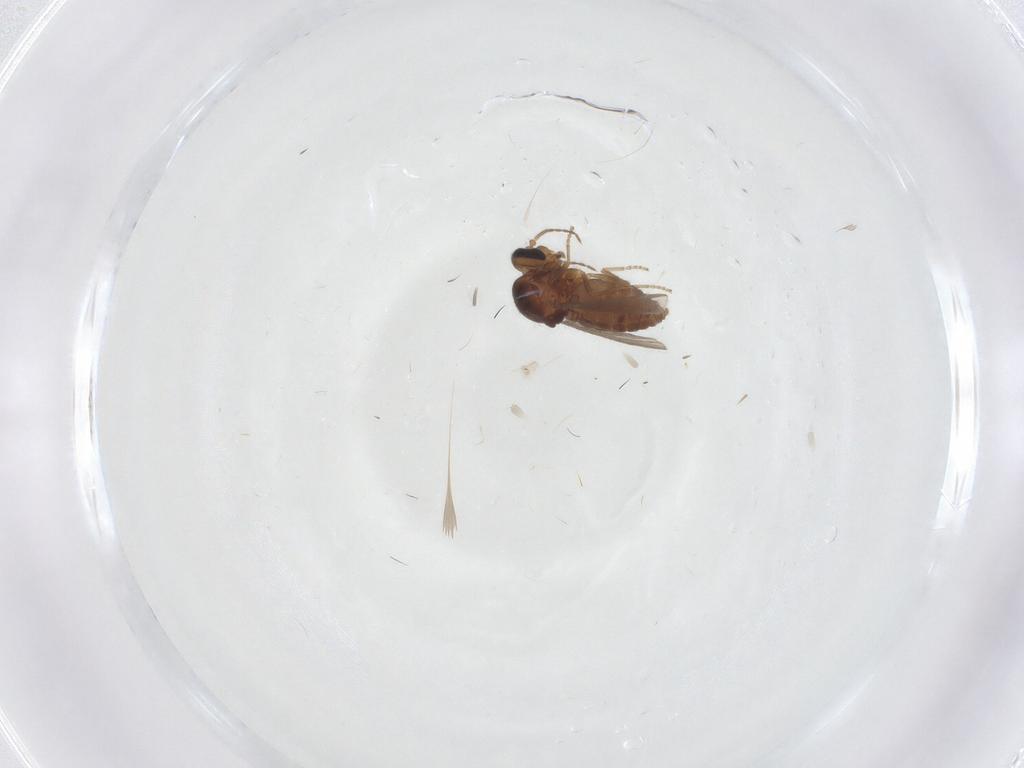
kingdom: Animalia
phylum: Arthropoda
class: Insecta
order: Diptera
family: Ceratopogonidae
